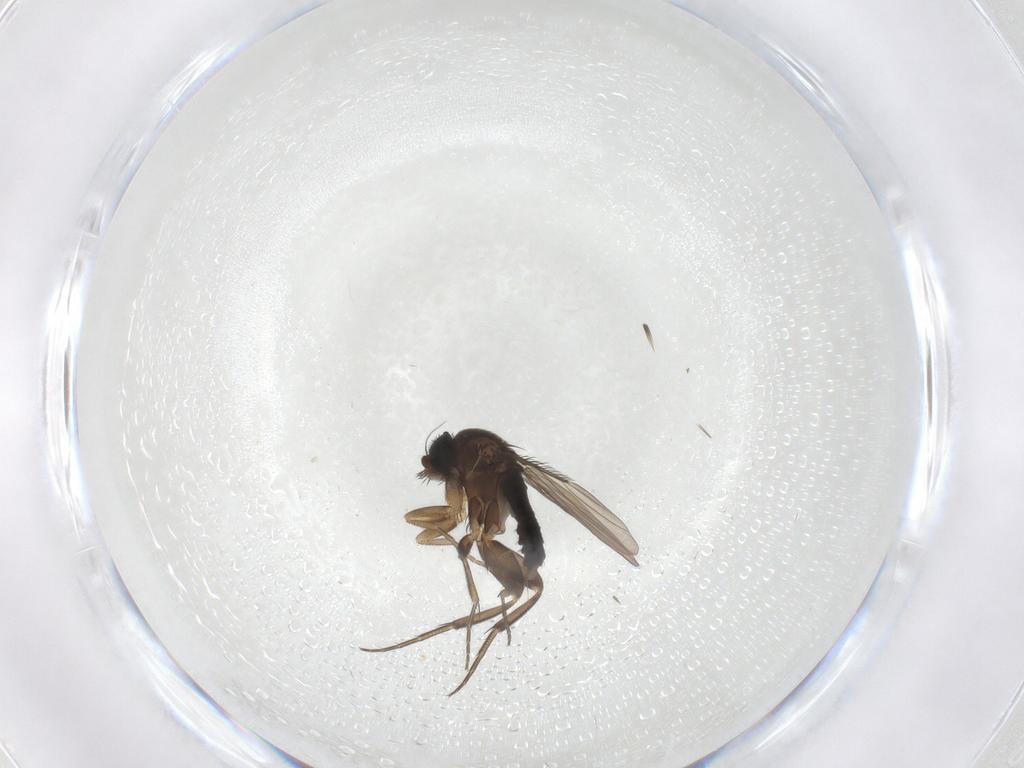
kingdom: Animalia
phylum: Arthropoda
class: Insecta
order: Diptera
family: Phoridae
